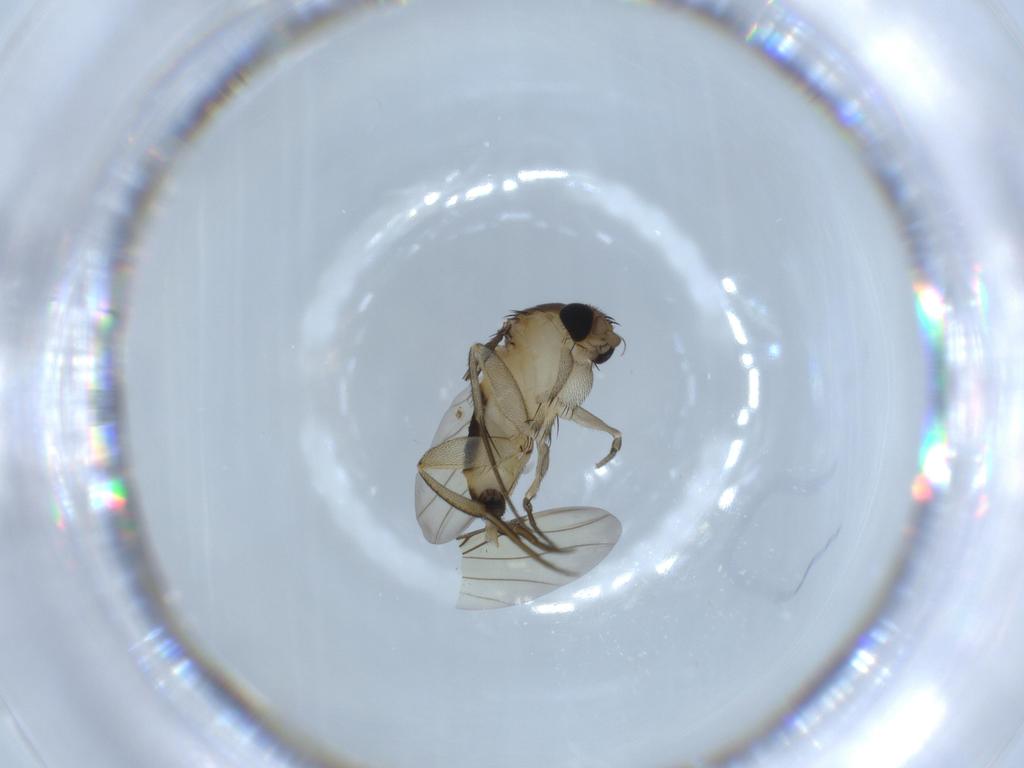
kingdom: Animalia
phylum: Arthropoda
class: Insecta
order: Diptera
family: Phoridae
